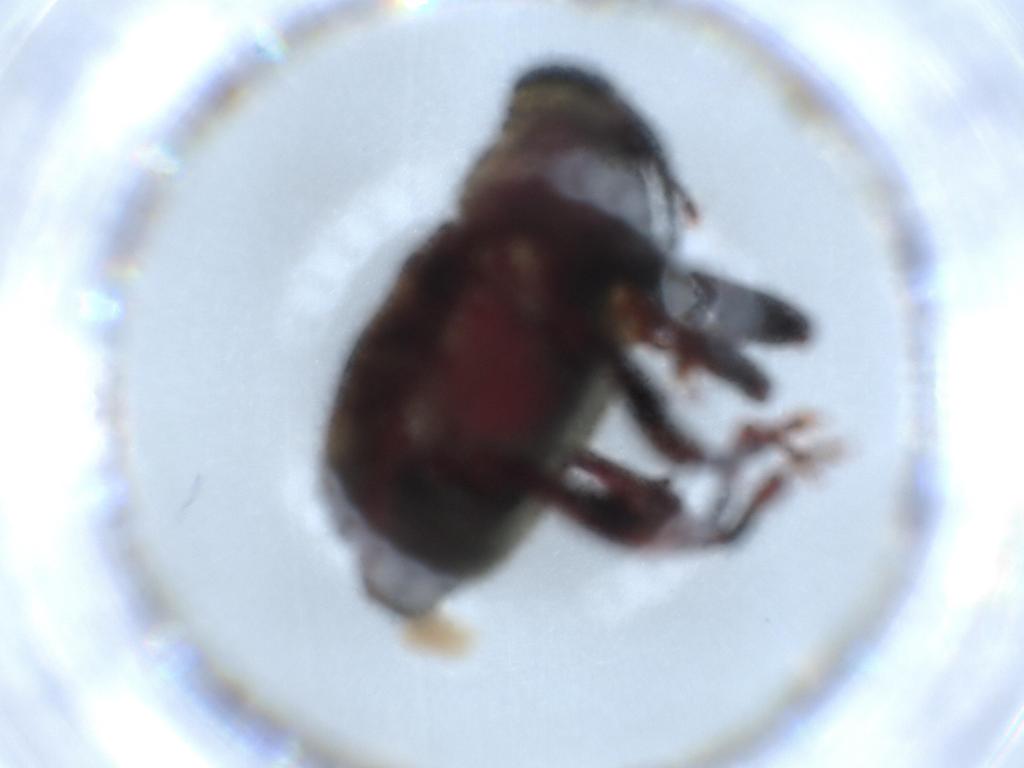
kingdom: Animalia
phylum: Arthropoda
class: Insecta
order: Coleoptera
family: Curculionidae
